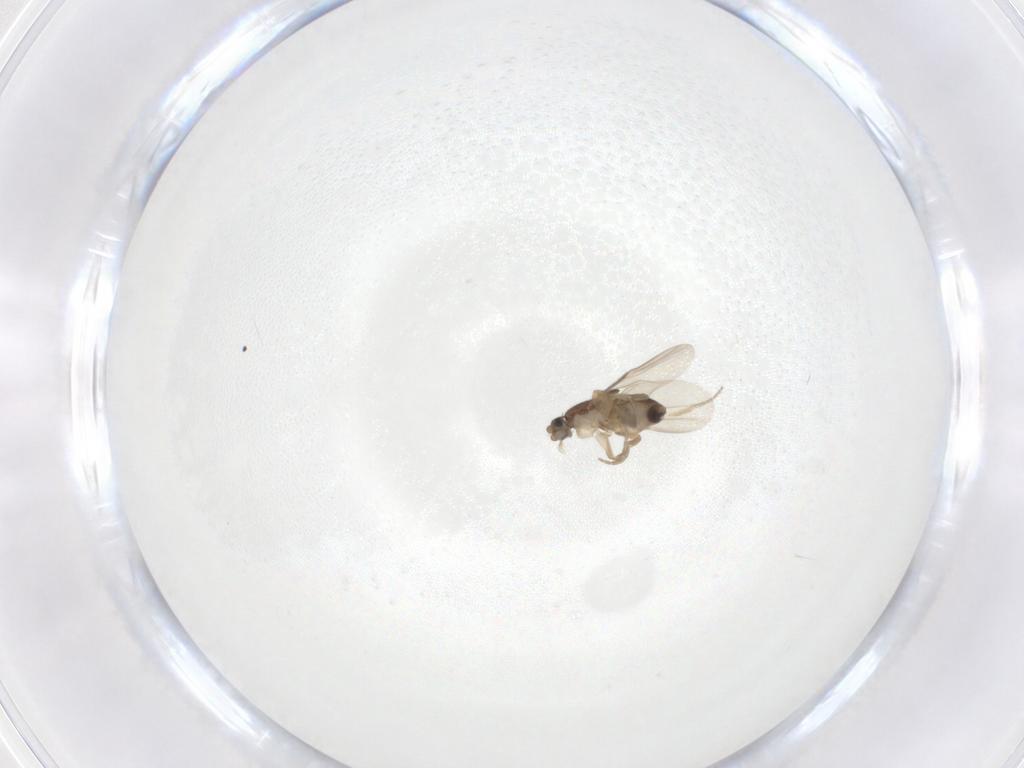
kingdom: Animalia
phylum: Arthropoda
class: Insecta
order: Diptera
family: Phoridae
